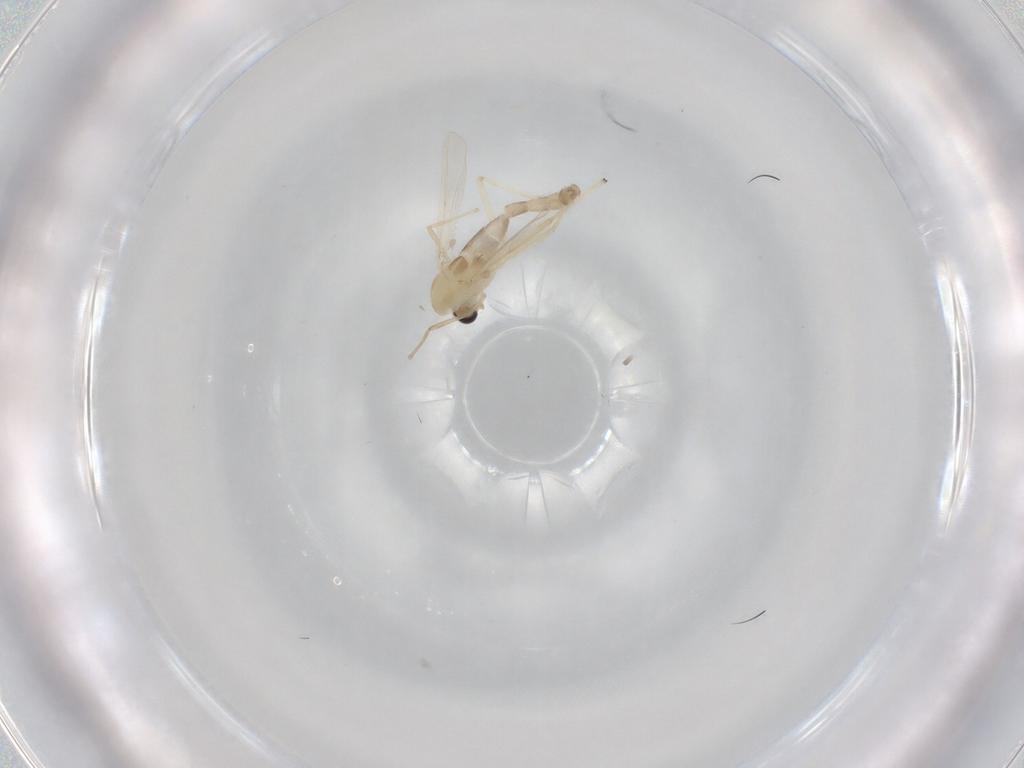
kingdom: Animalia
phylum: Arthropoda
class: Insecta
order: Diptera
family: Chironomidae
